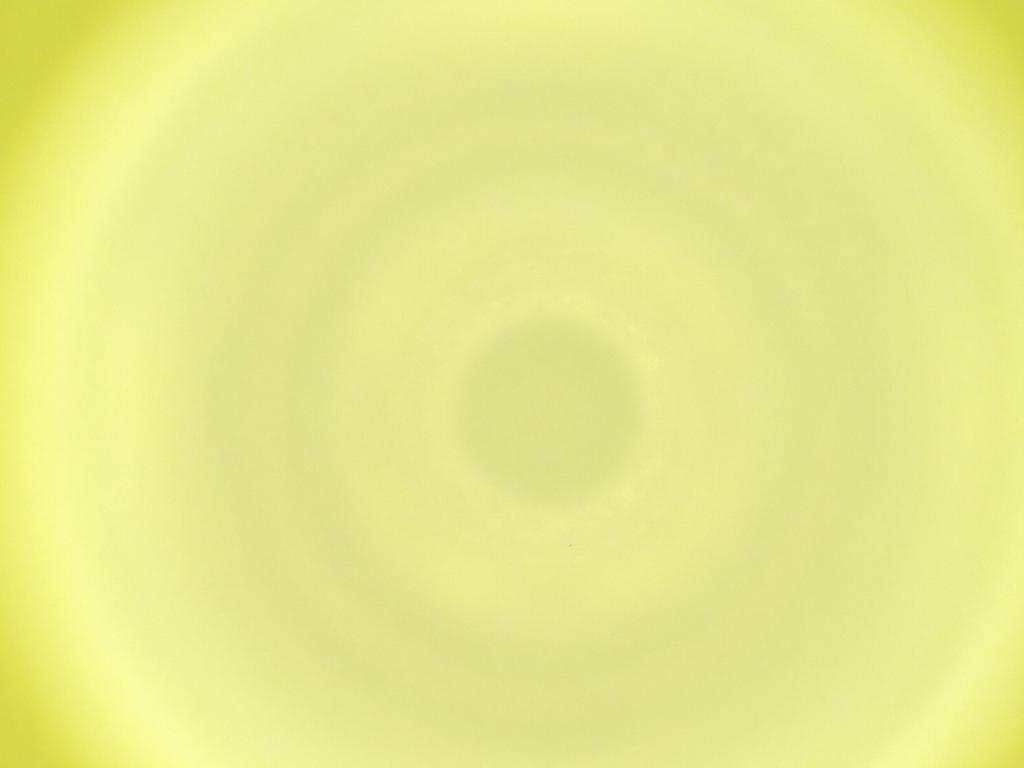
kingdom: Animalia
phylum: Arthropoda
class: Insecta
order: Diptera
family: Cecidomyiidae
